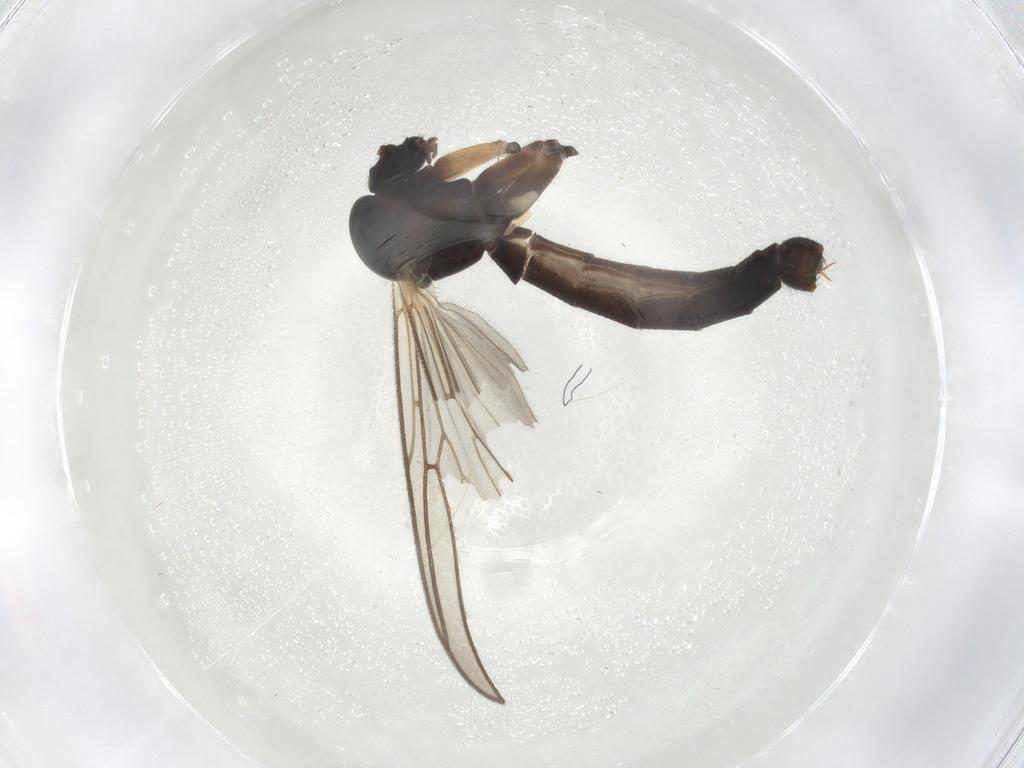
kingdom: Animalia
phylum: Arthropoda
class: Insecta
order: Diptera
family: Mycetophilidae
